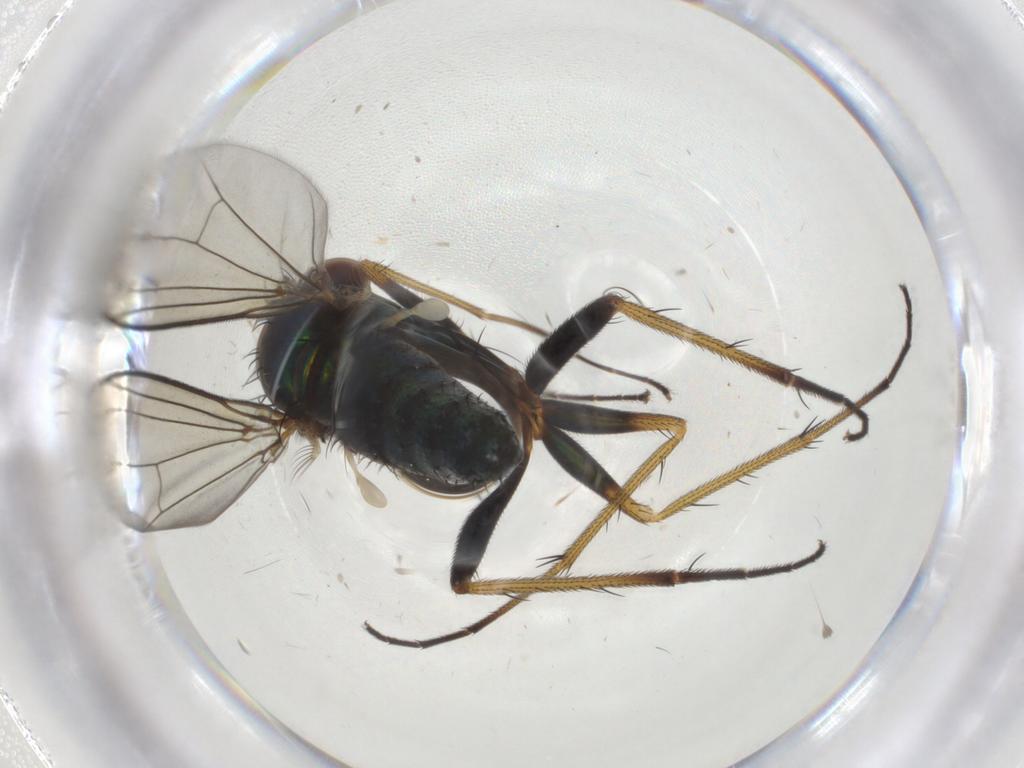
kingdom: Animalia
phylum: Arthropoda
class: Insecta
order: Diptera
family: Dolichopodidae
